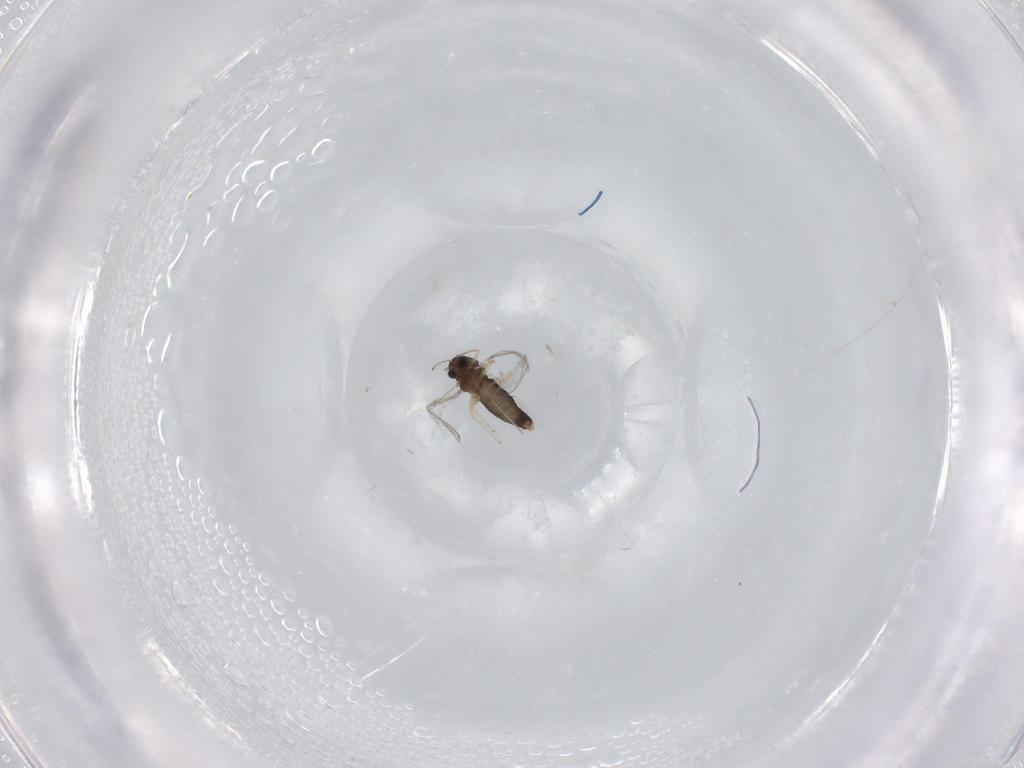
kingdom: Animalia
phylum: Arthropoda
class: Insecta
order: Diptera
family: Chironomidae
